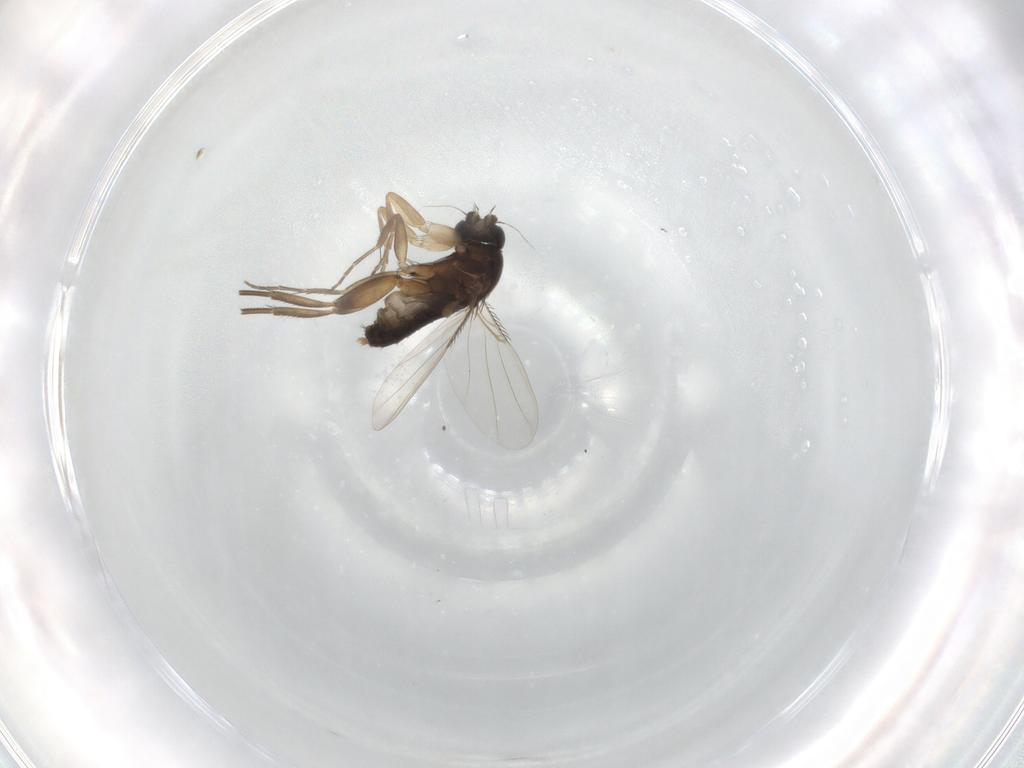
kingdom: Animalia
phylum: Arthropoda
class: Insecta
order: Diptera
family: Phoridae
